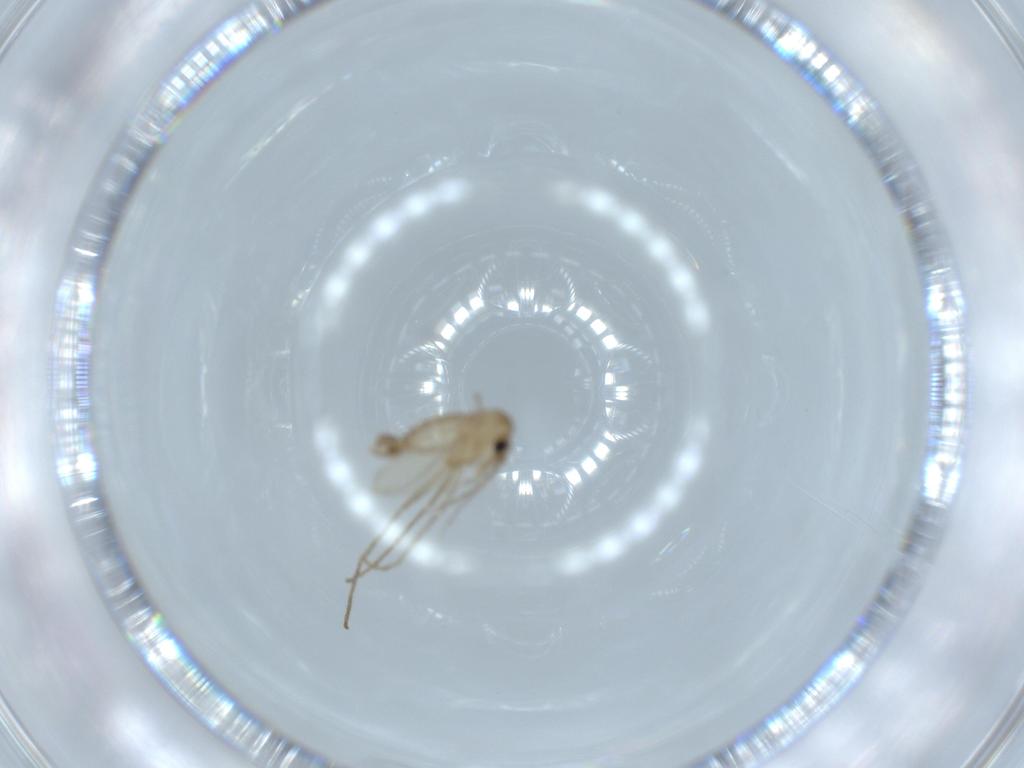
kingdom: Animalia
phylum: Arthropoda
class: Insecta
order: Diptera
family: Psychodidae
